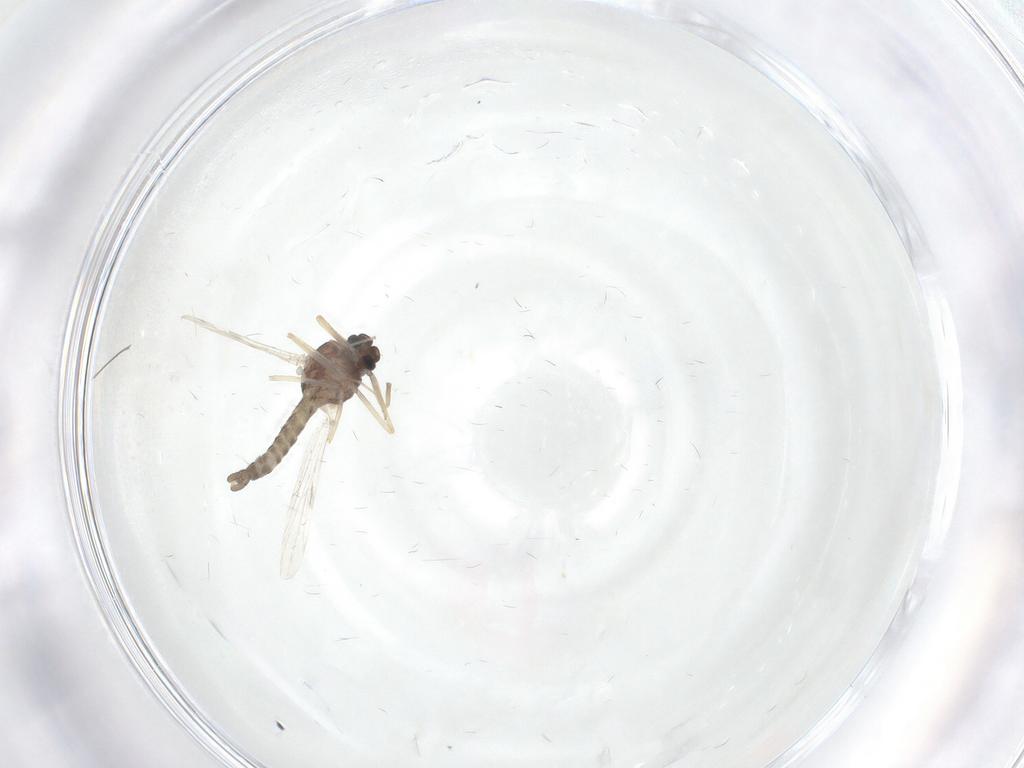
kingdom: Animalia
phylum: Arthropoda
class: Insecta
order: Diptera
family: Ceratopogonidae
